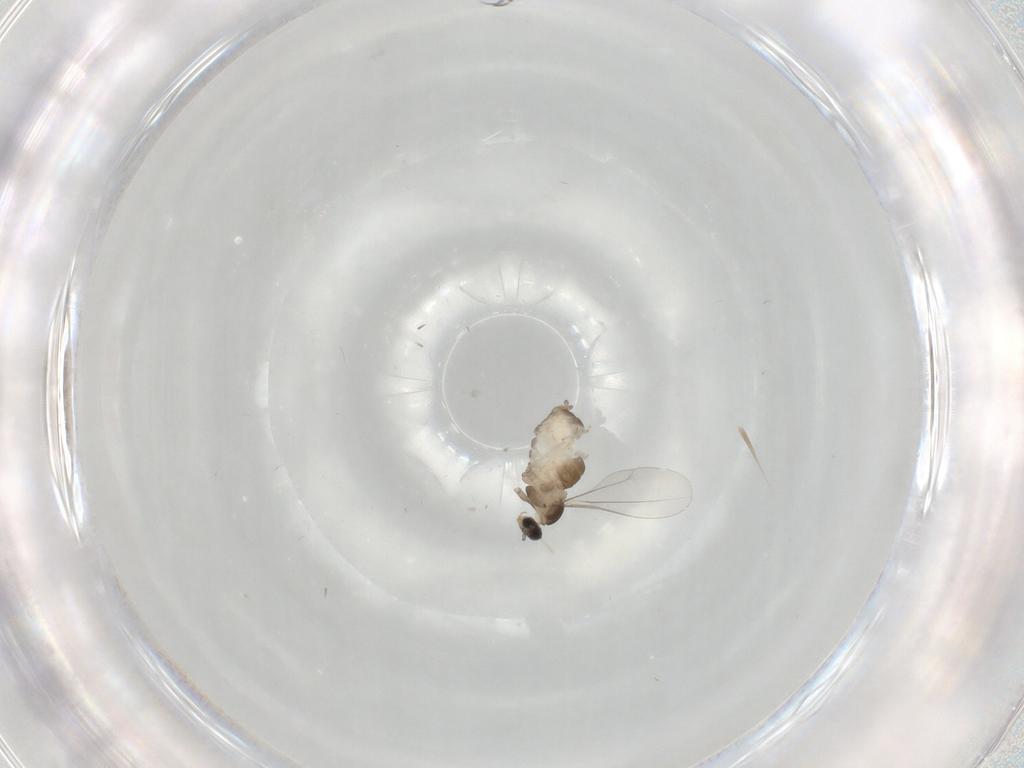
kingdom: Animalia
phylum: Arthropoda
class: Insecta
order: Diptera
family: Cecidomyiidae
